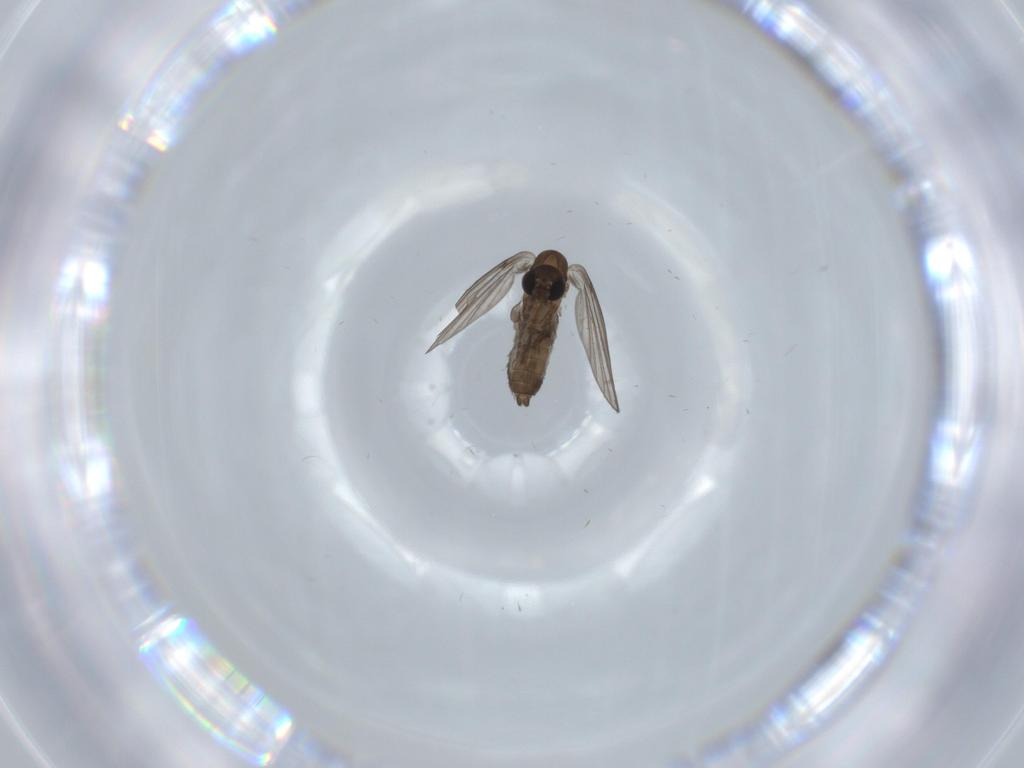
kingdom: Animalia
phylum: Arthropoda
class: Insecta
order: Diptera
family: Psychodidae
